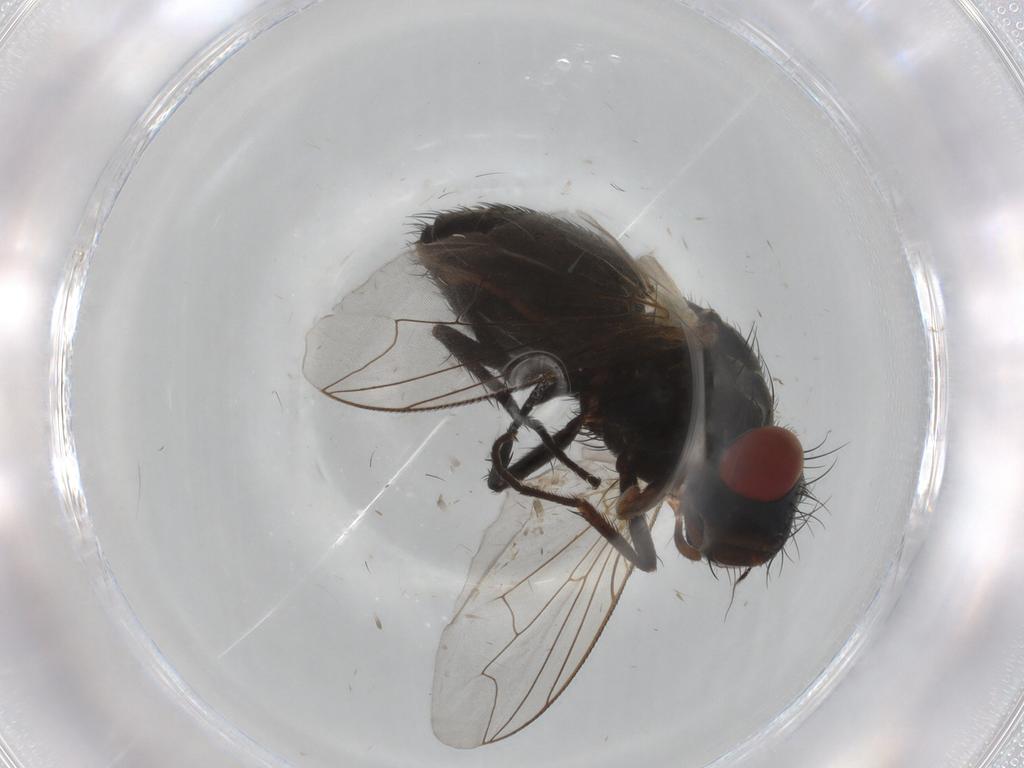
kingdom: Animalia
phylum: Arthropoda
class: Insecta
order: Diptera
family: Sarcophagidae
